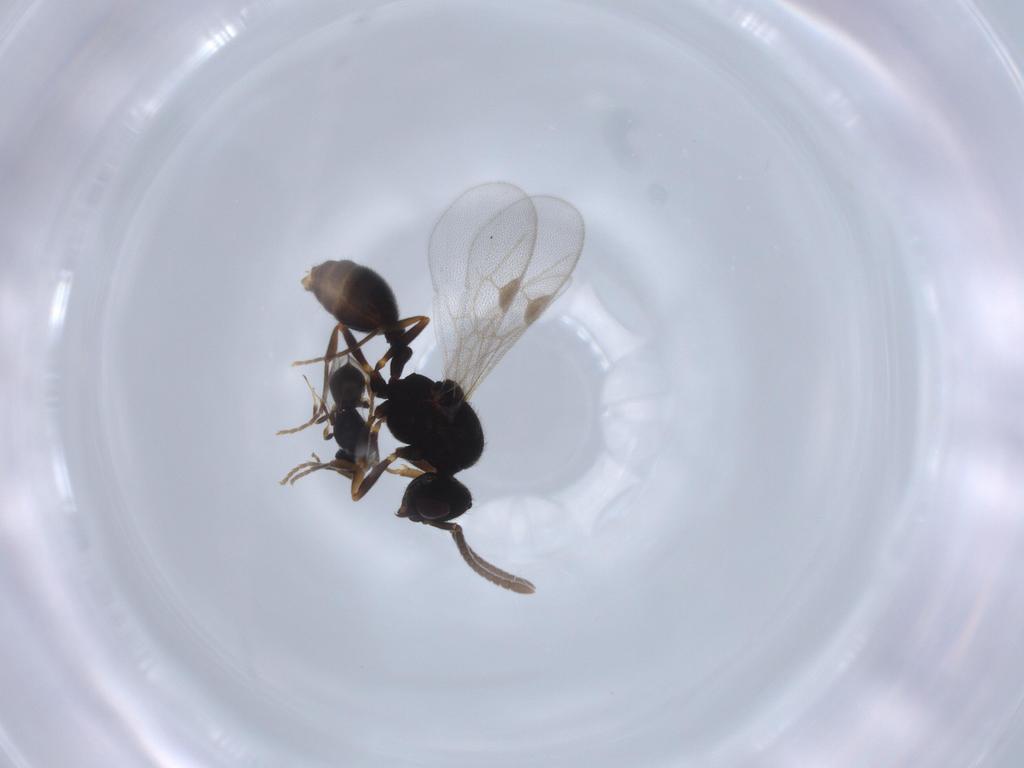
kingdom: Animalia
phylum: Arthropoda
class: Insecta
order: Hymenoptera
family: Scelionidae
